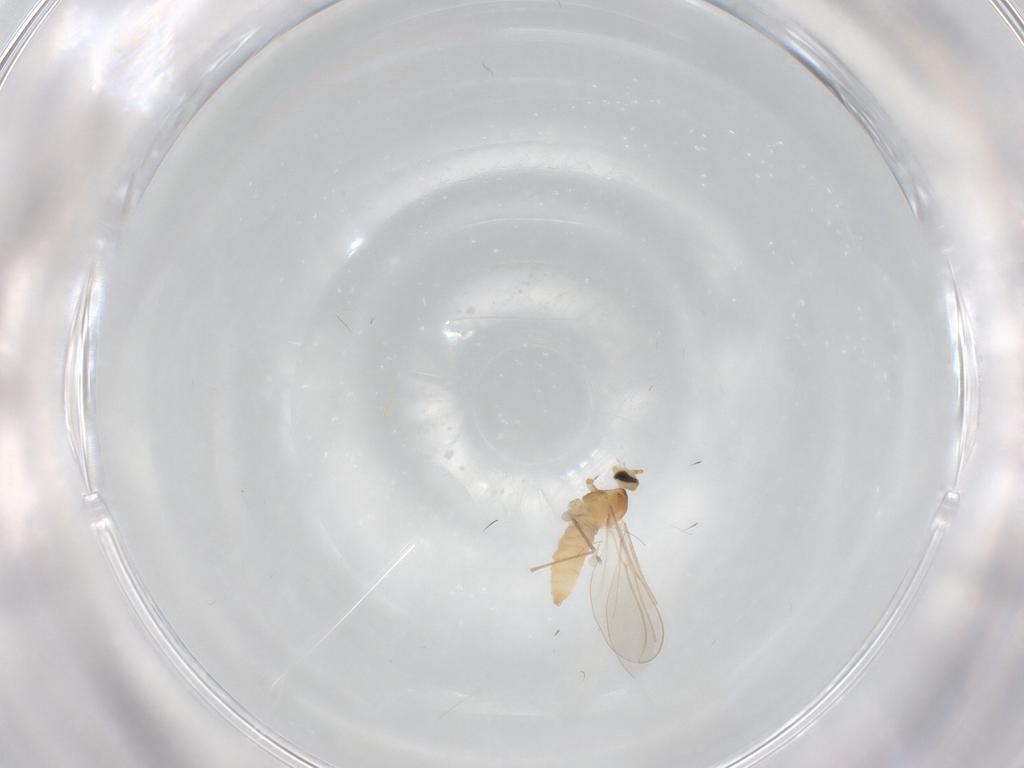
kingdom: Animalia
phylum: Arthropoda
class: Insecta
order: Diptera
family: Cecidomyiidae
